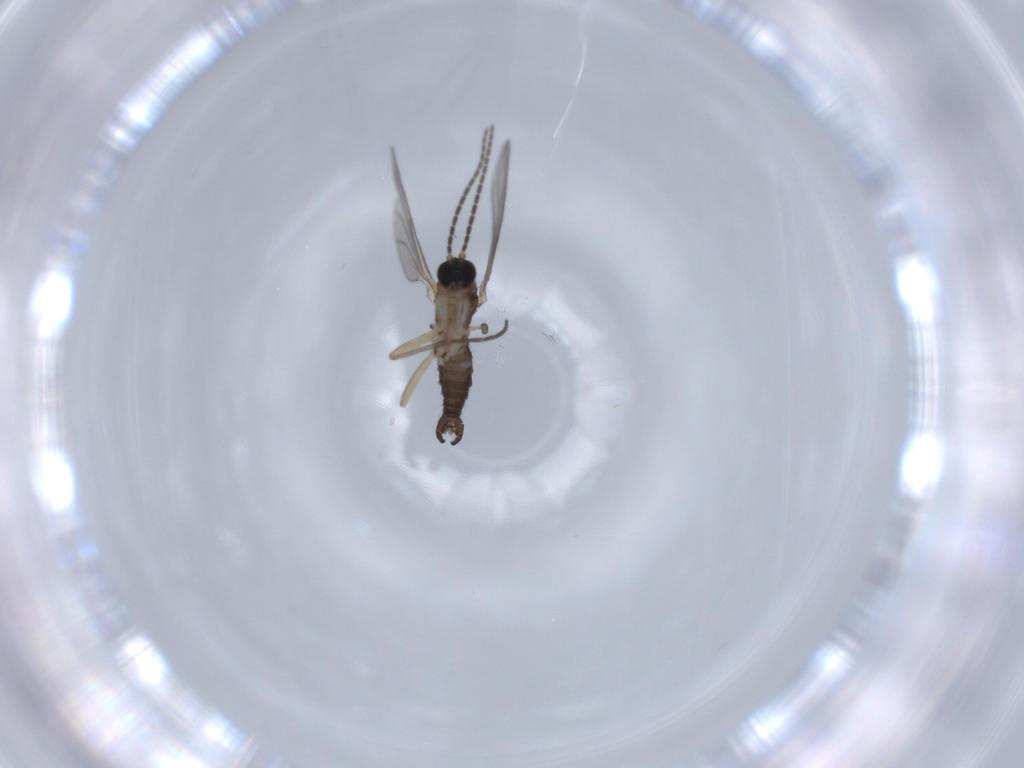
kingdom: Animalia
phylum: Arthropoda
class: Insecta
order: Diptera
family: Sciaridae
